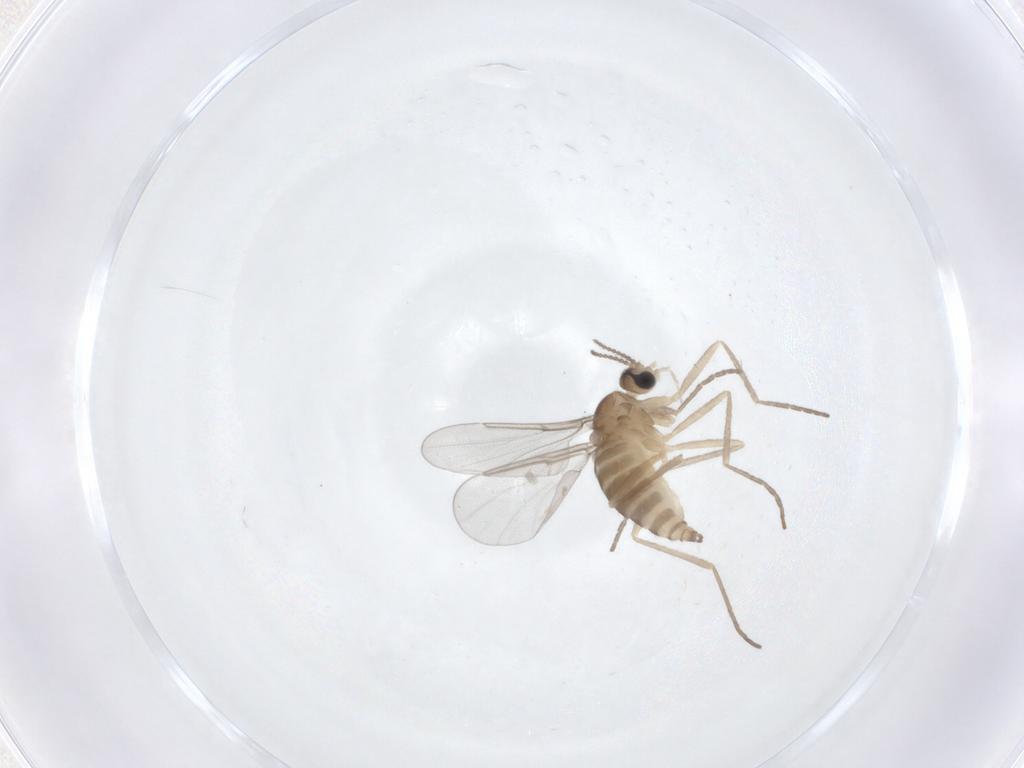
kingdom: Animalia
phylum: Arthropoda
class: Insecta
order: Diptera
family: Cecidomyiidae
